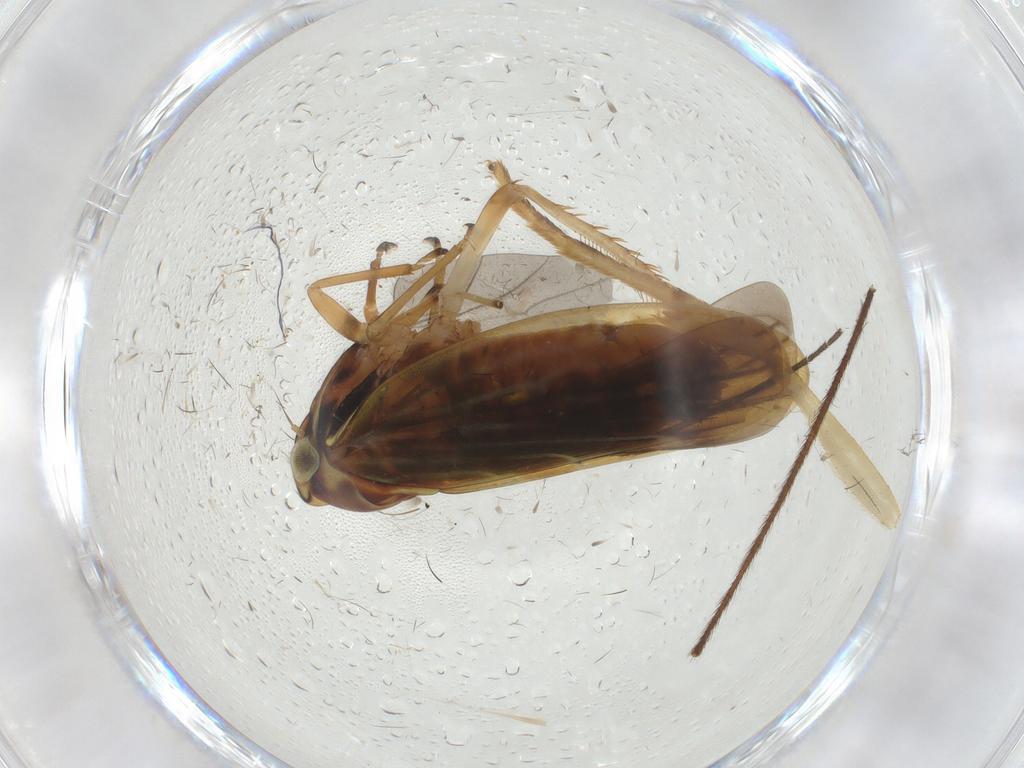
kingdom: Animalia
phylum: Arthropoda
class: Insecta
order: Hemiptera
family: Cicadellidae
